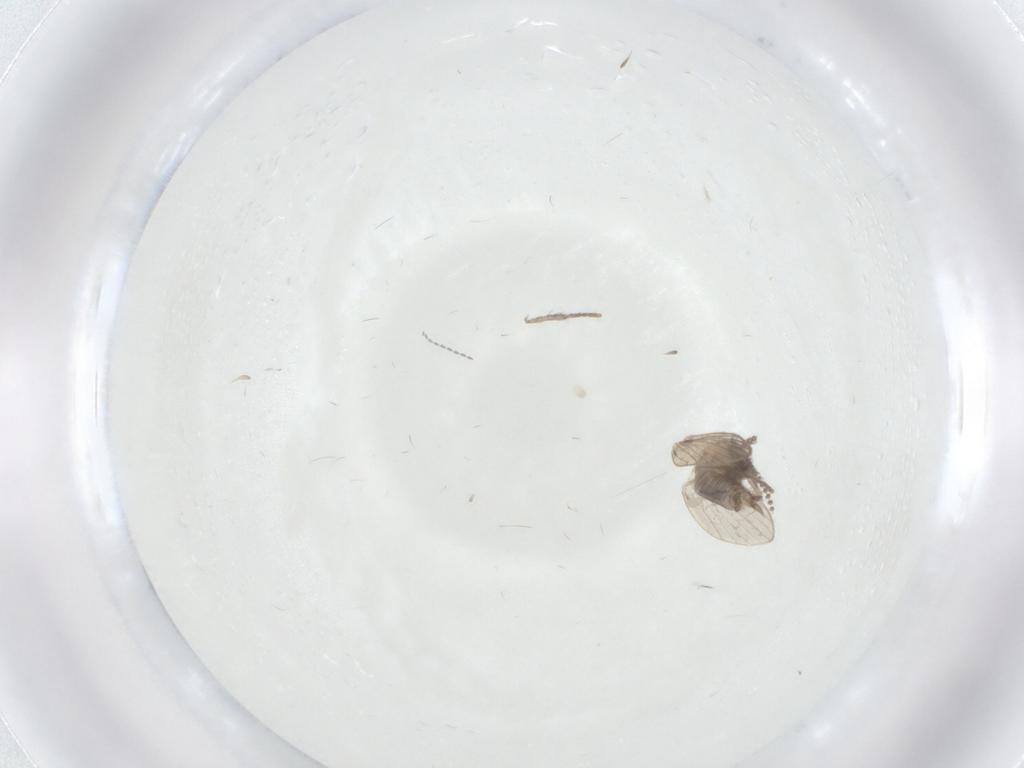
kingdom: Animalia
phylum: Arthropoda
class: Insecta
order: Diptera
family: Psychodidae
